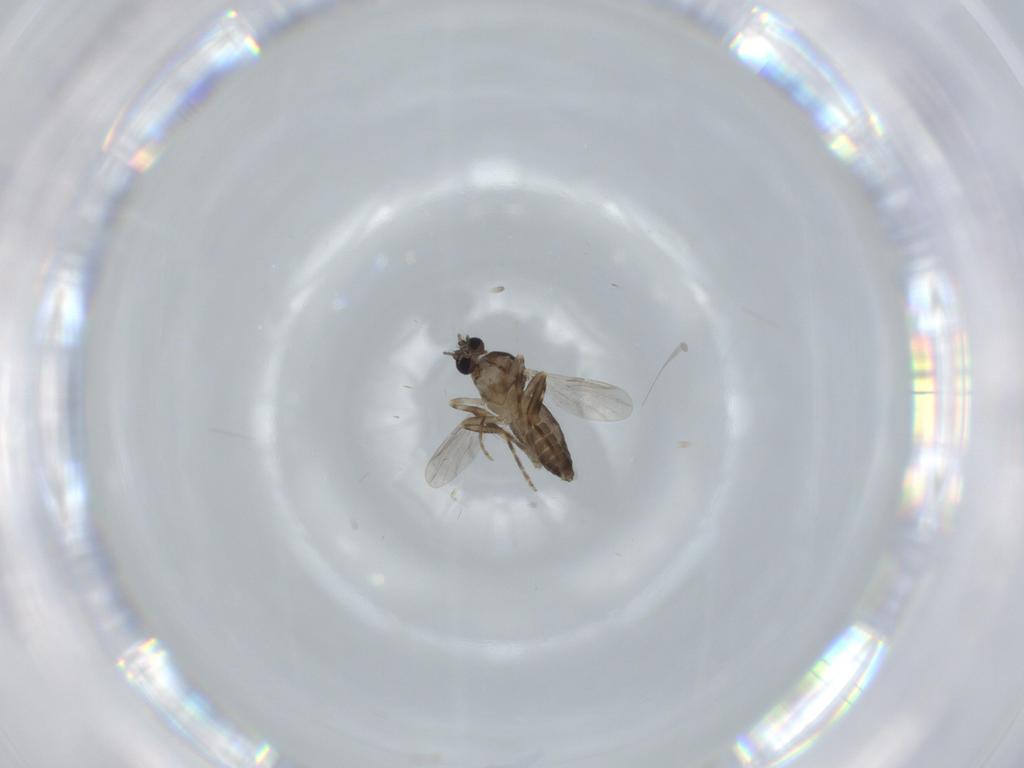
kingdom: Animalia
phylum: Arthropoda
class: Insecta
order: Diptera
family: Ceratopogonidae
